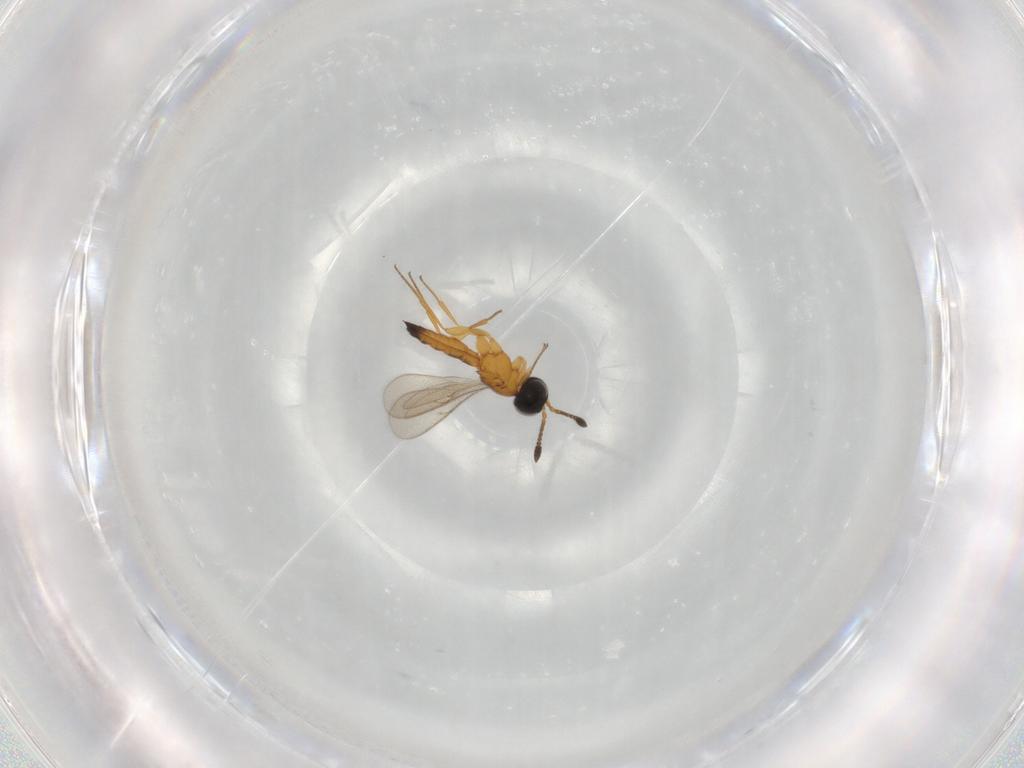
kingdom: Animalia
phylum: Arthropoda
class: Insecta
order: Hymenoptera
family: Scelionidae
